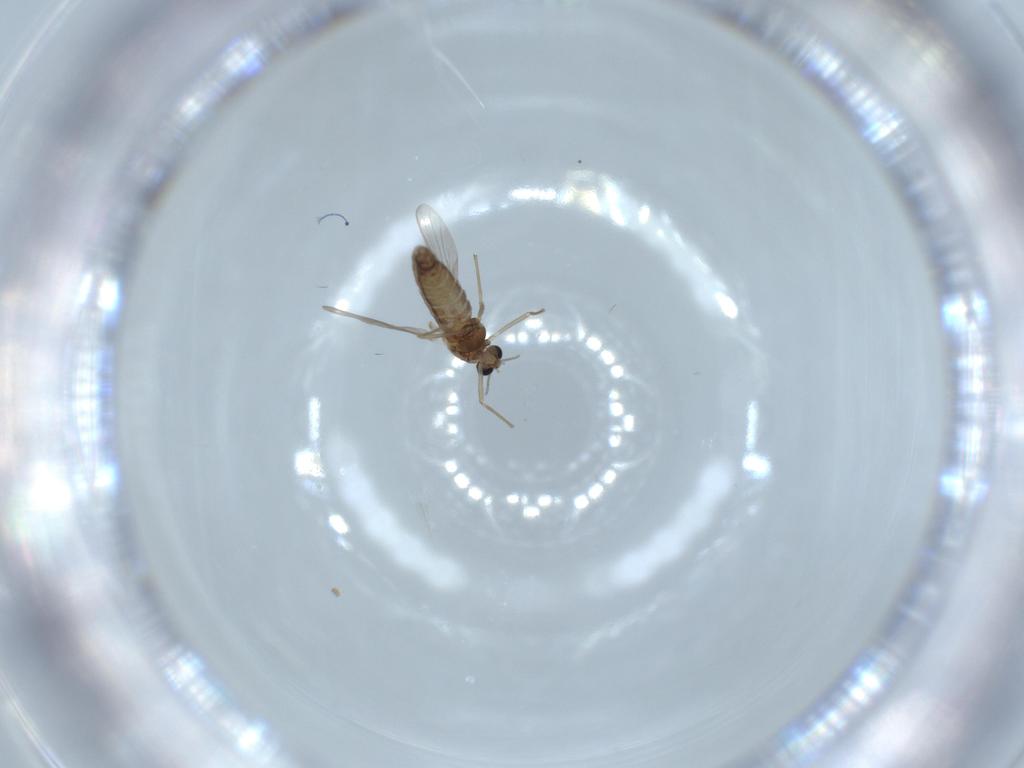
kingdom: Animalia
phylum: Arthropoda
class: Insecta
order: Diptera
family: Chironomidae
